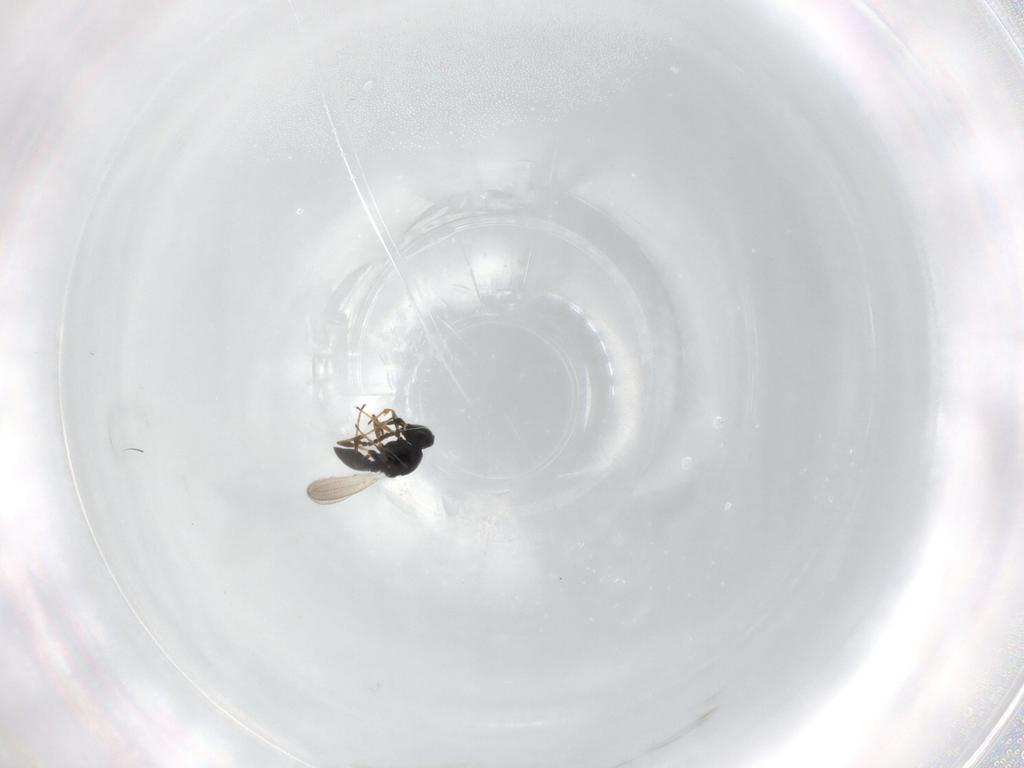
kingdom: Animalia
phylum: Arthropoda
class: Insecta
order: Hymenoptera
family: Platygastridae
